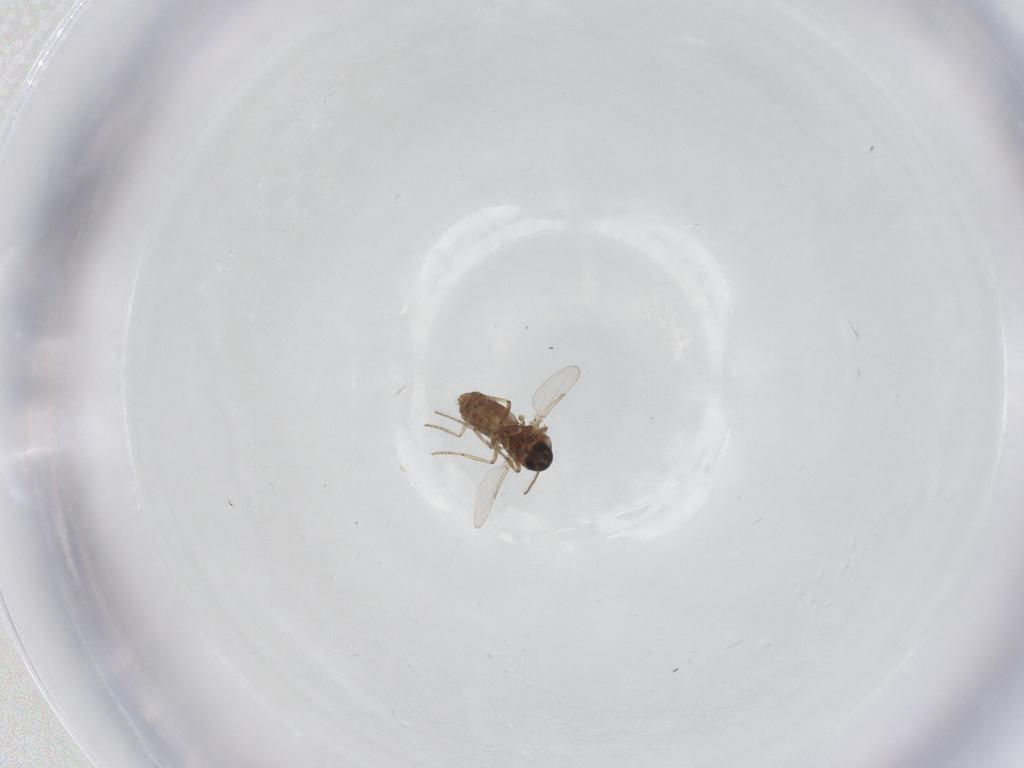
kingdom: Animalia
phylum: Arthropoda
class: Insecta
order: Diptera
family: Ceratopogonidae
